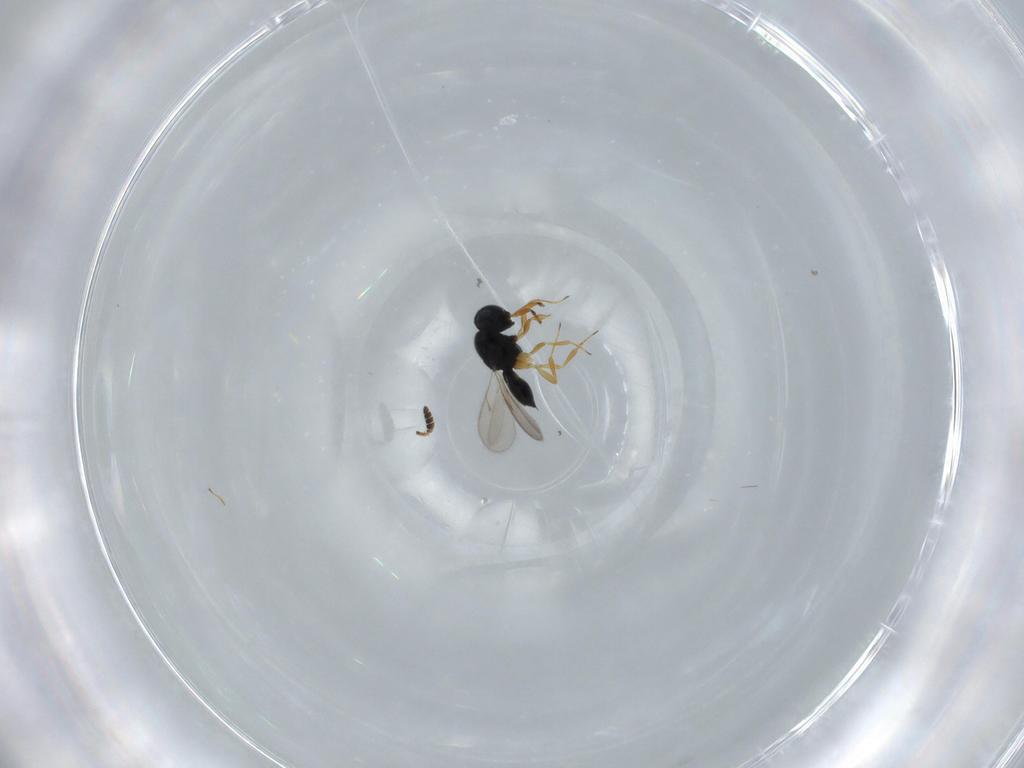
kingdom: Animalia
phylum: Arthropoda
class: Insecta
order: Hymenoptera
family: Scelionidae
